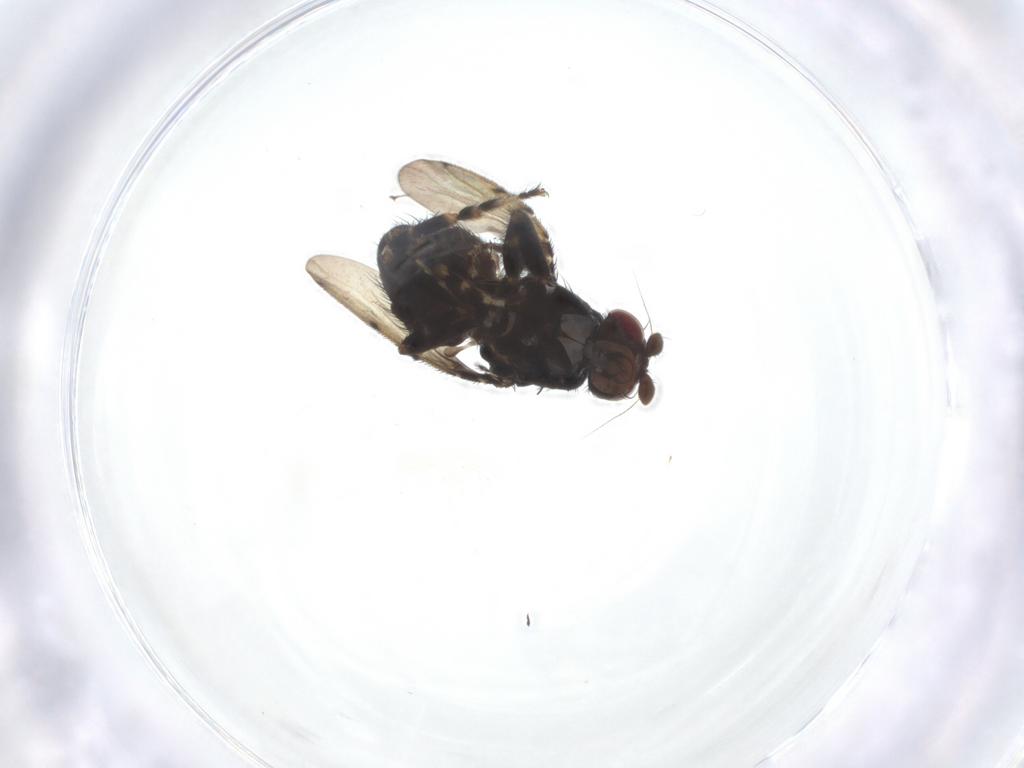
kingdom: Animalia
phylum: Arthropoda
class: Insecta
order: Diptera
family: Sphaeroceridae
